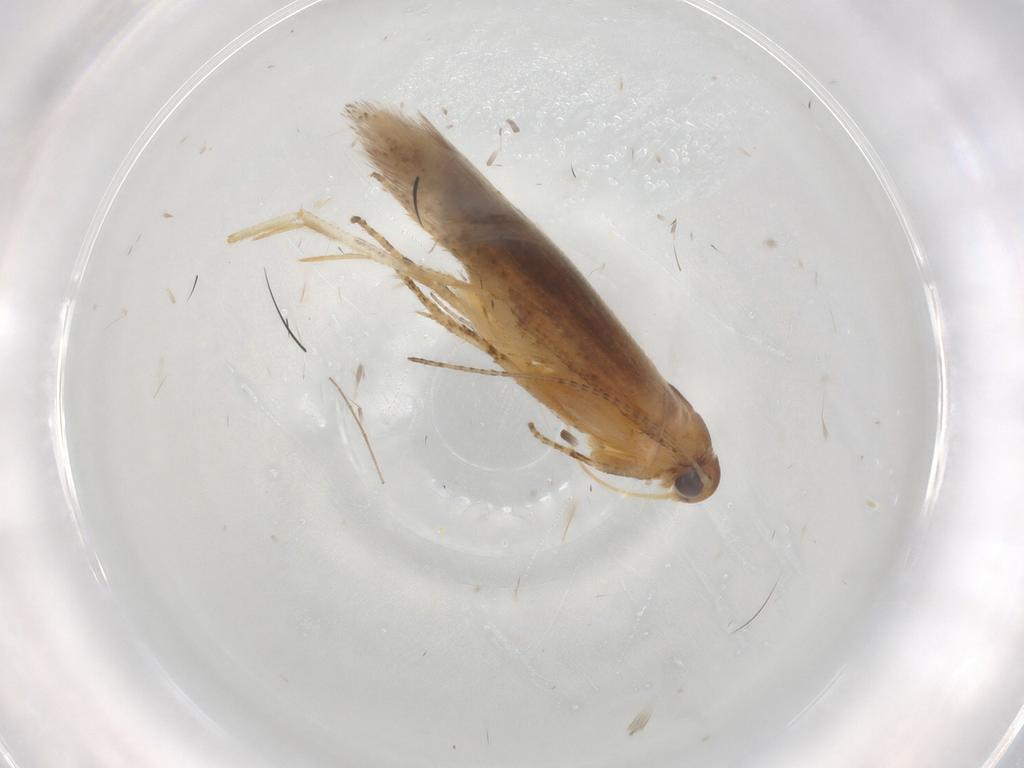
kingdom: Animalia
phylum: Arthropoda
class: Insecta
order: Lepidoptera
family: Gelechiidae
